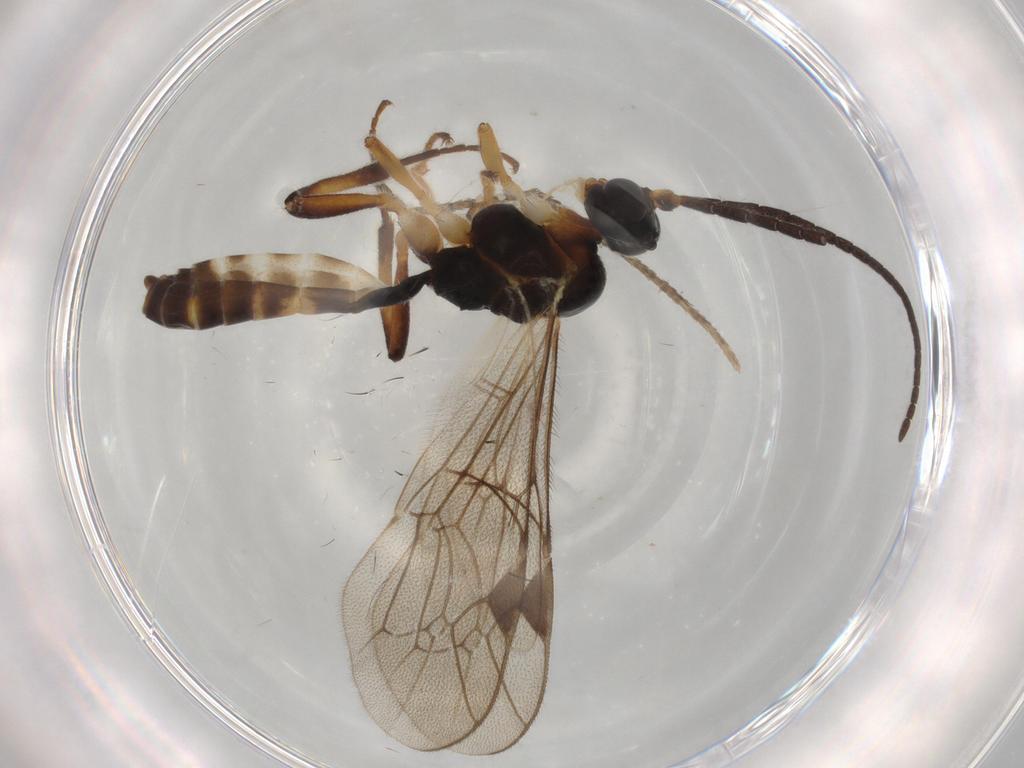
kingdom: Animalia
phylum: Arthropoda
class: Insecta
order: Hymenoptera
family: Ichneumonidae
